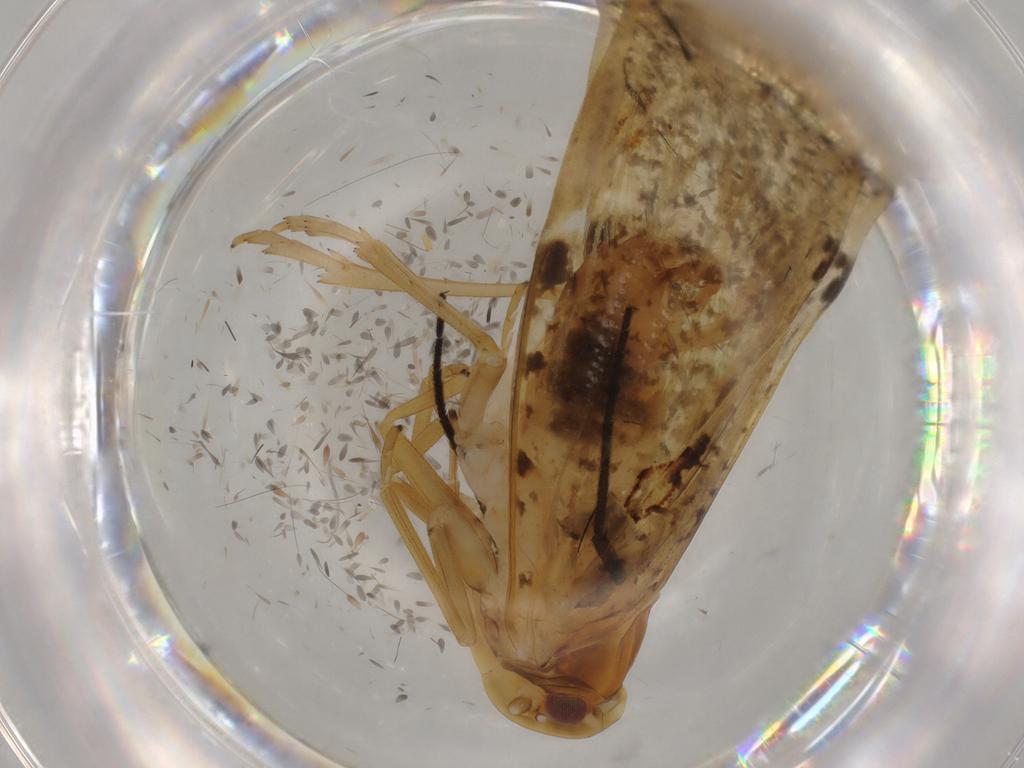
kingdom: Animalia
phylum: Arthropoda
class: Insecta
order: Hemiptera
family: Cixiidae
